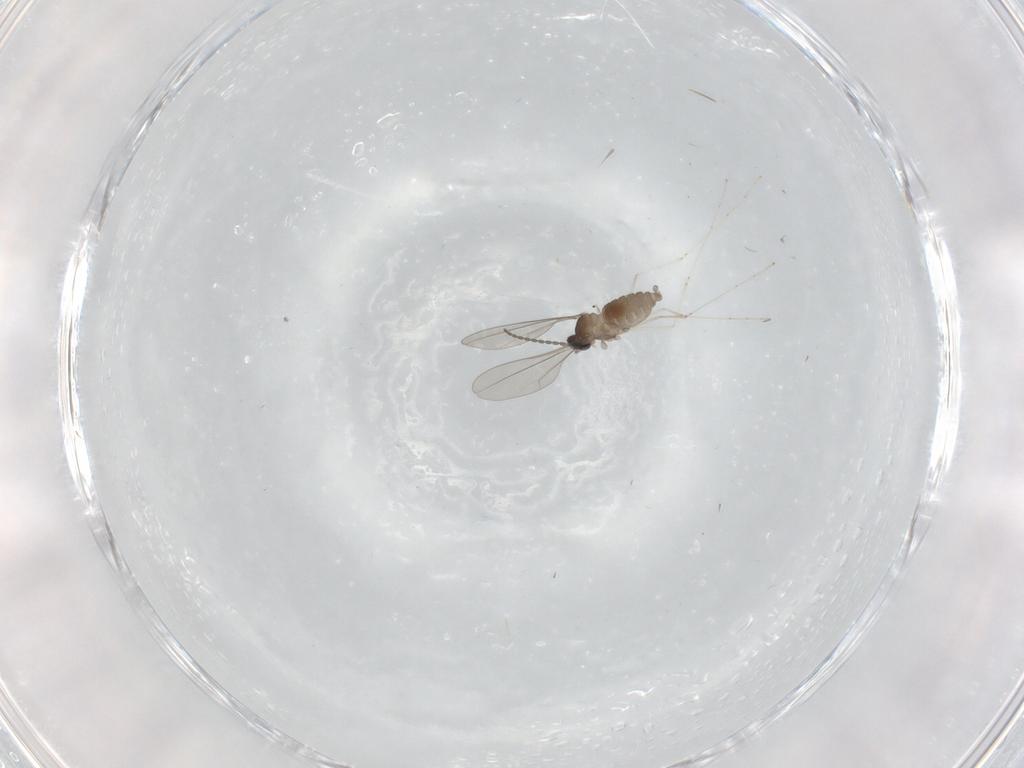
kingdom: Animalia
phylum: Arthropoda
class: Insecta
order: Diptera
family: Cecidomyiidae
